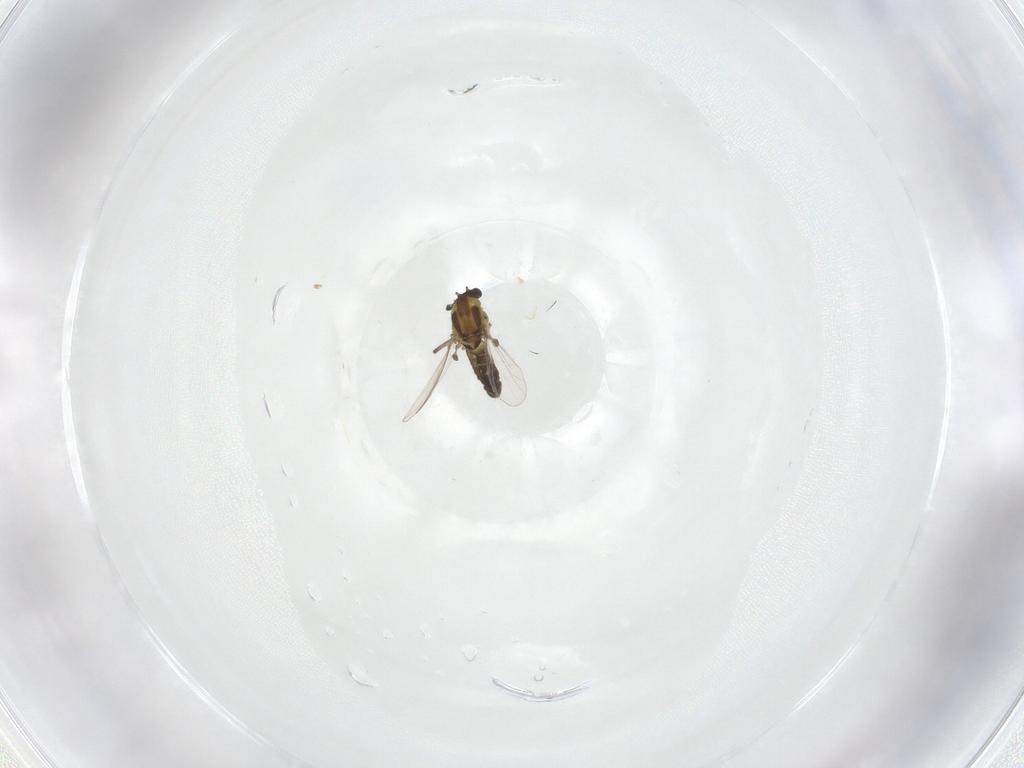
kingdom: Animalia
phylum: Arthropoda
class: Insecta
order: Diptera
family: Chironomidae
